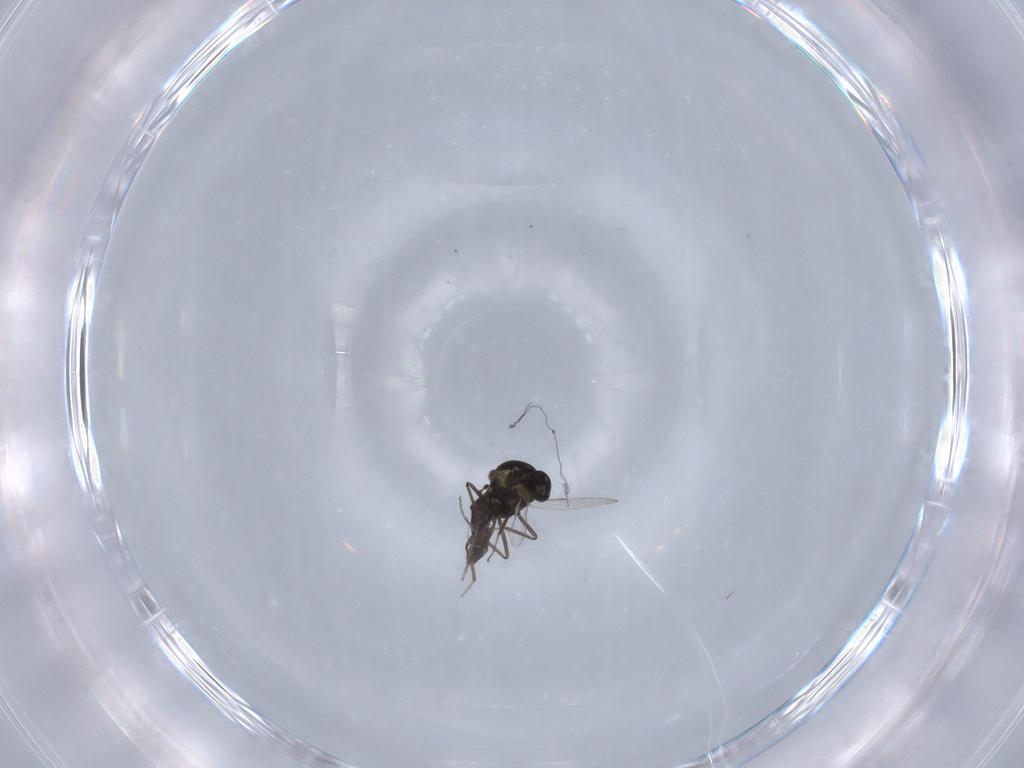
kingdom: Animalia
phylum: Arthropoda
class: Insecta
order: Diptera
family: Ceratopogonidae
